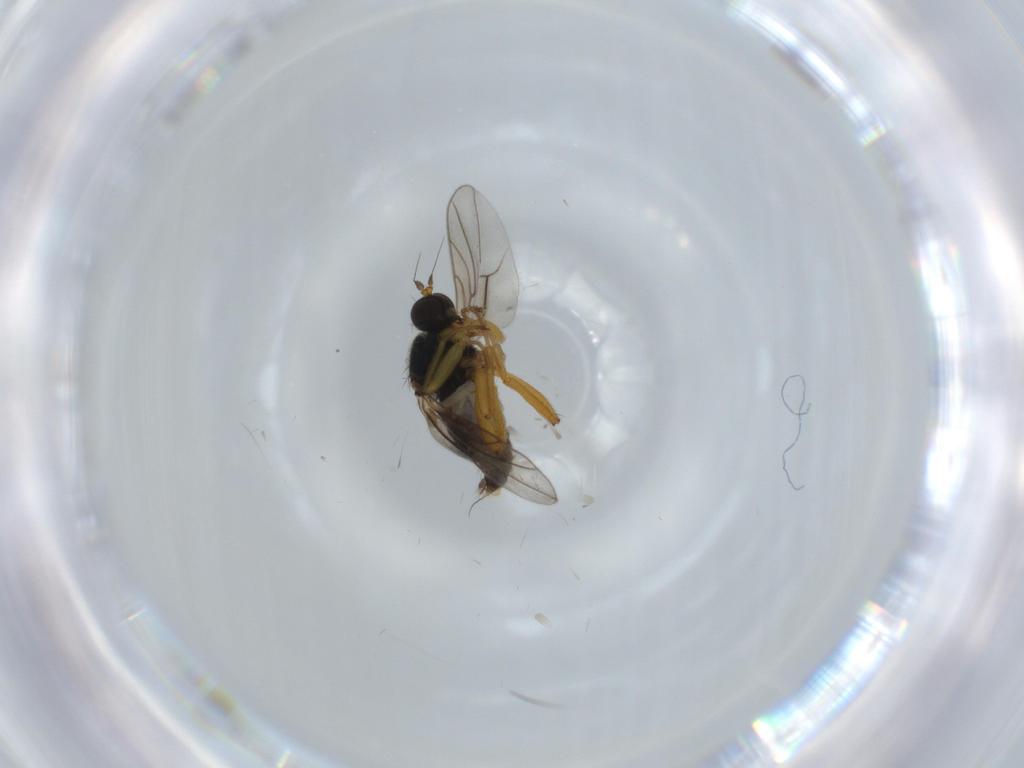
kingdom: Animalia
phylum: Arthropoda
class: Insecta
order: Diptera
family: Hybotidae
